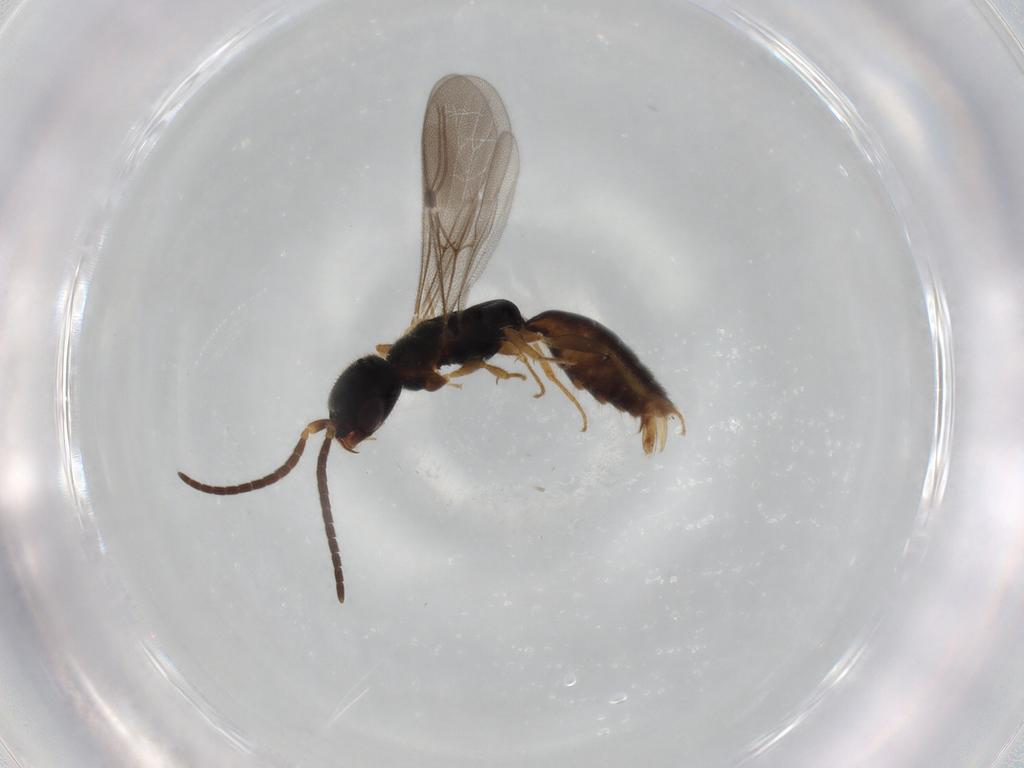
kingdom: Animalia
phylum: Arthropoda
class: Insecta
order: Hymenoptera
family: Bethylidae
